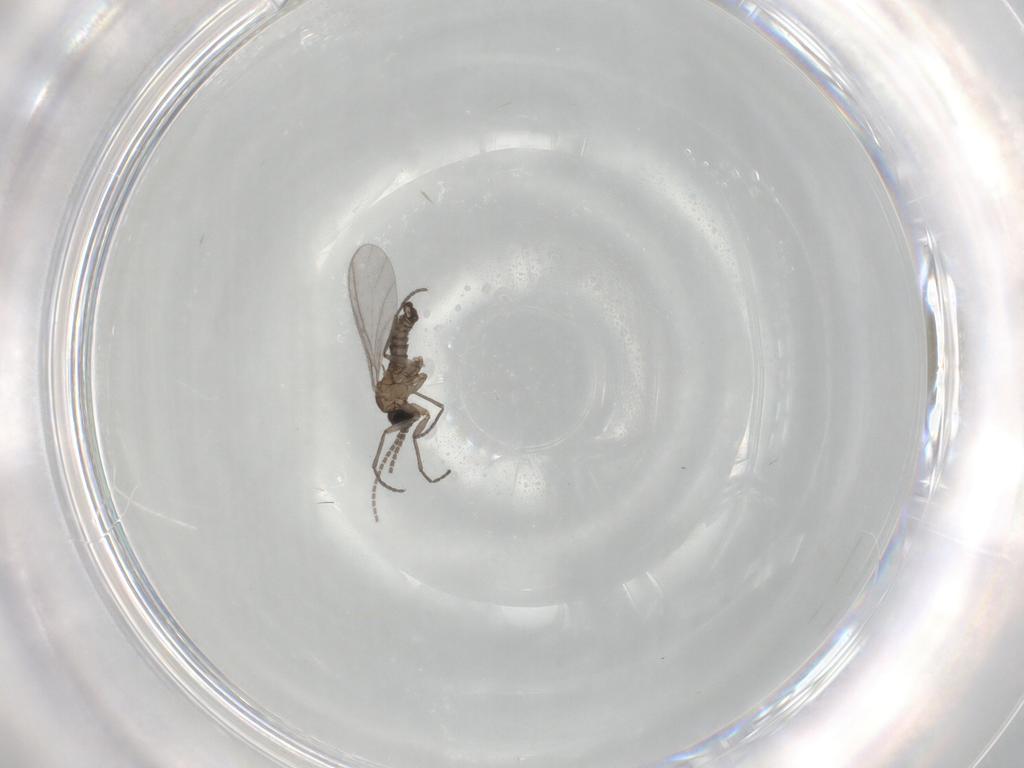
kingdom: Animalia
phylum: Arthropoda
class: Insecta
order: Diptera
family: Sciaridae
